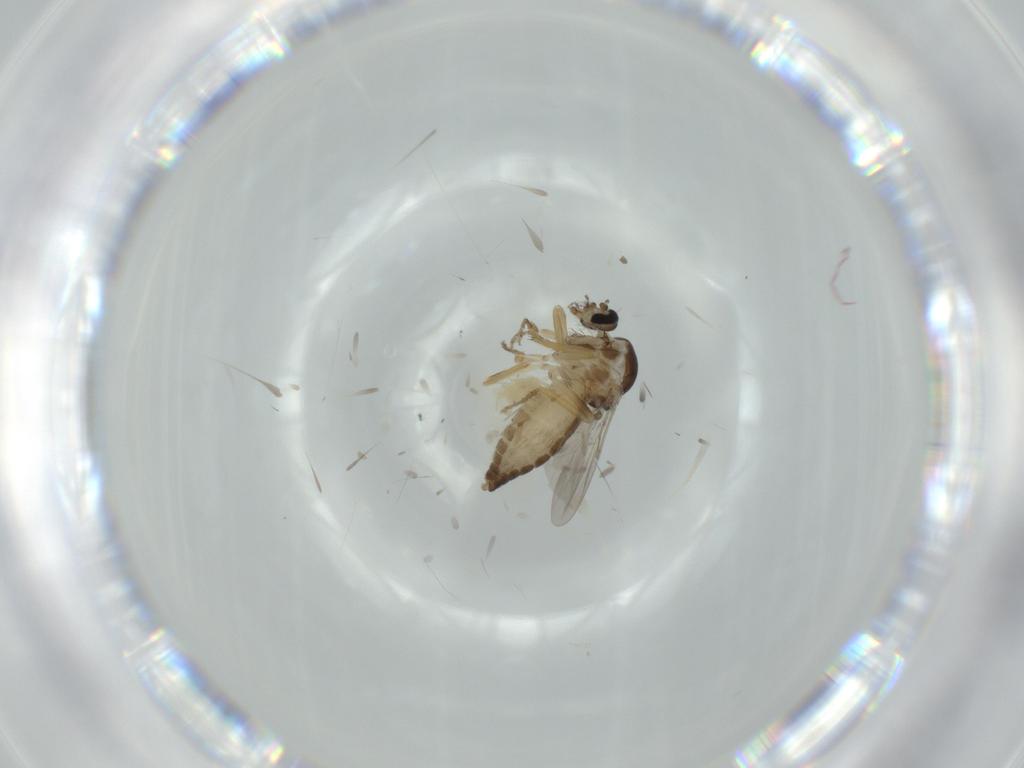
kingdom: Animalia
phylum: Arthropoda
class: Insecta
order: Diptera
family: Ceratopogonidae
